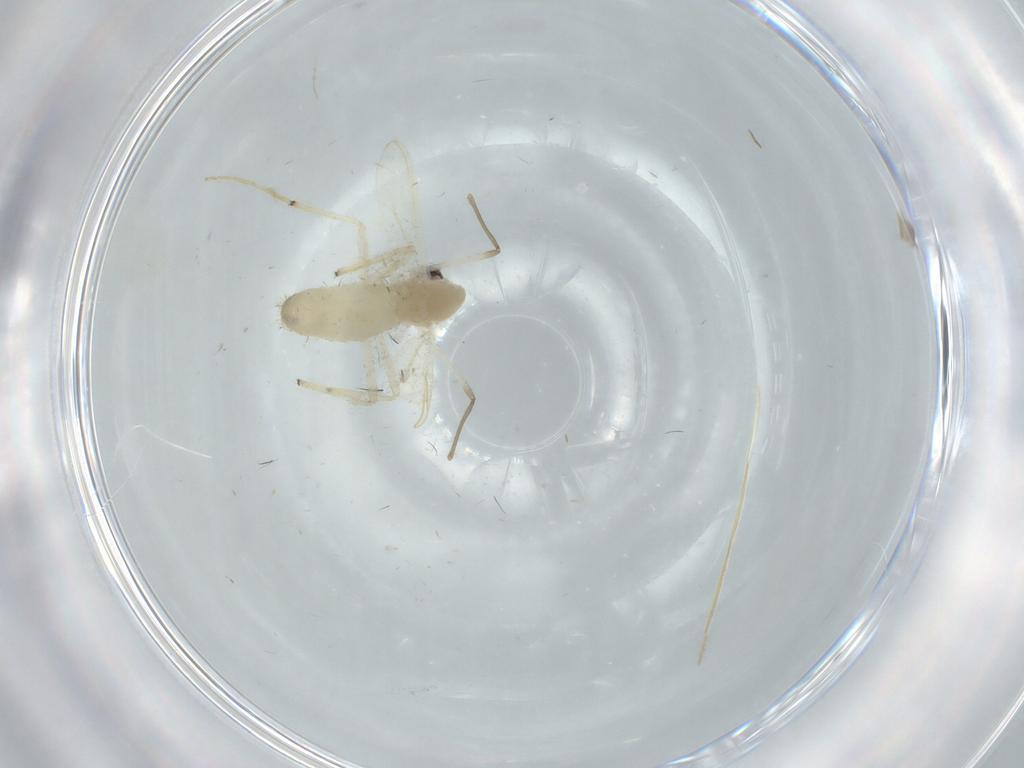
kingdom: Animalia
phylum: Arthropoda
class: Insecta
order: Diptera
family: Chironomidae
